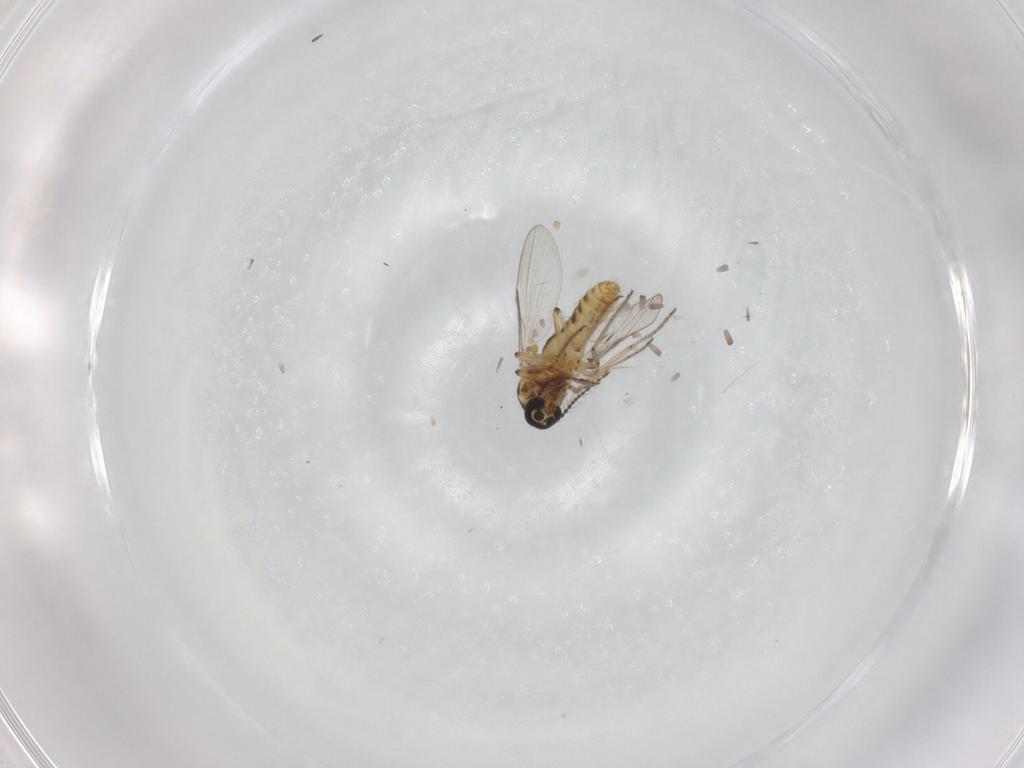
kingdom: Animalia
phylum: Arthropoda
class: Insecta
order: Diptera
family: Ceratopogonidae
